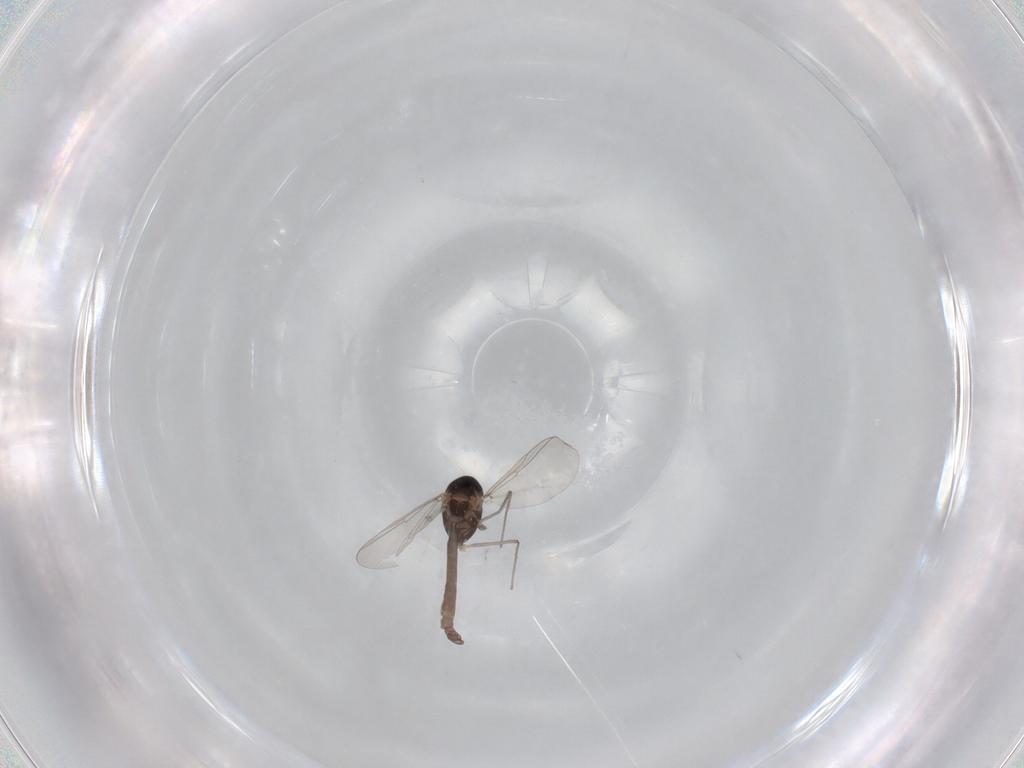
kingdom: Animalia
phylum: Arthropoda
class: Insecta
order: Diptera
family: Chironomidae
